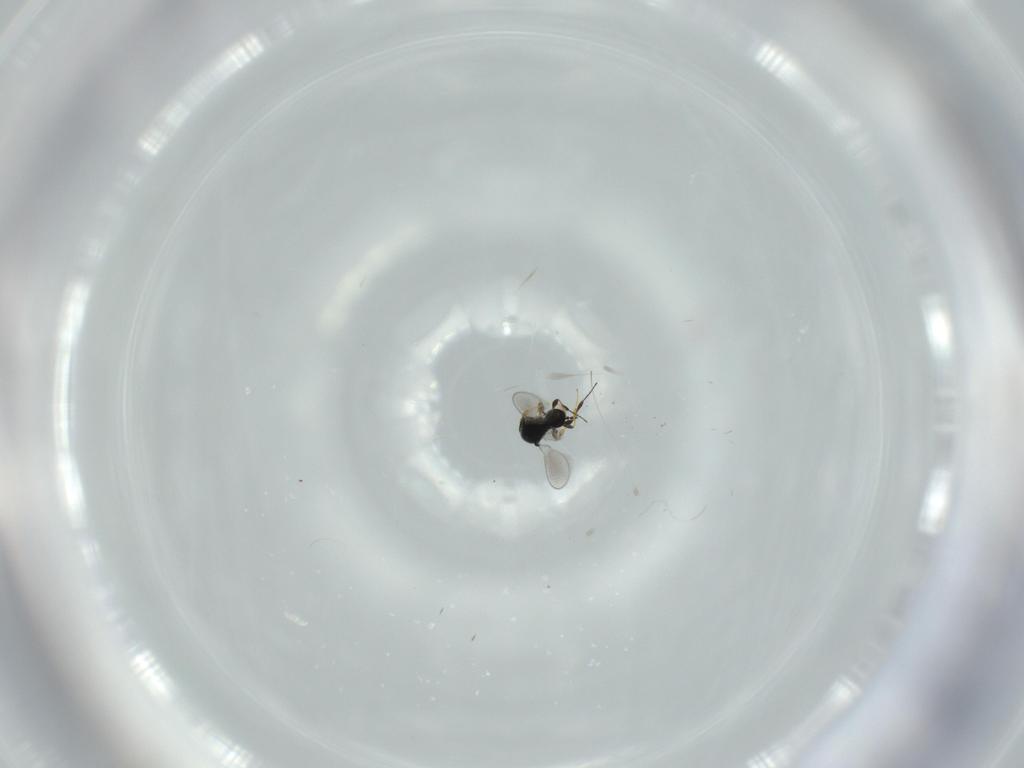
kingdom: Animalia
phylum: Arthropoda
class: Insecta
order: Hymenoptera
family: Platygastridae
